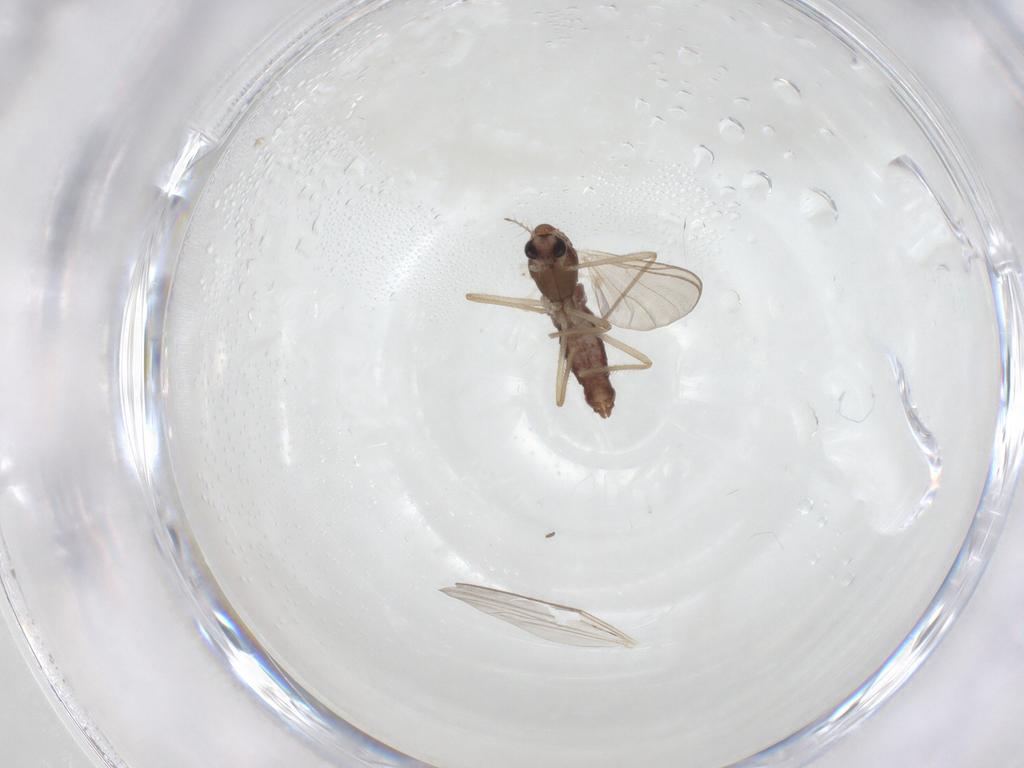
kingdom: Animalia
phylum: Arthropoda
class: Insecta
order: Diptera
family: Chironomidae
